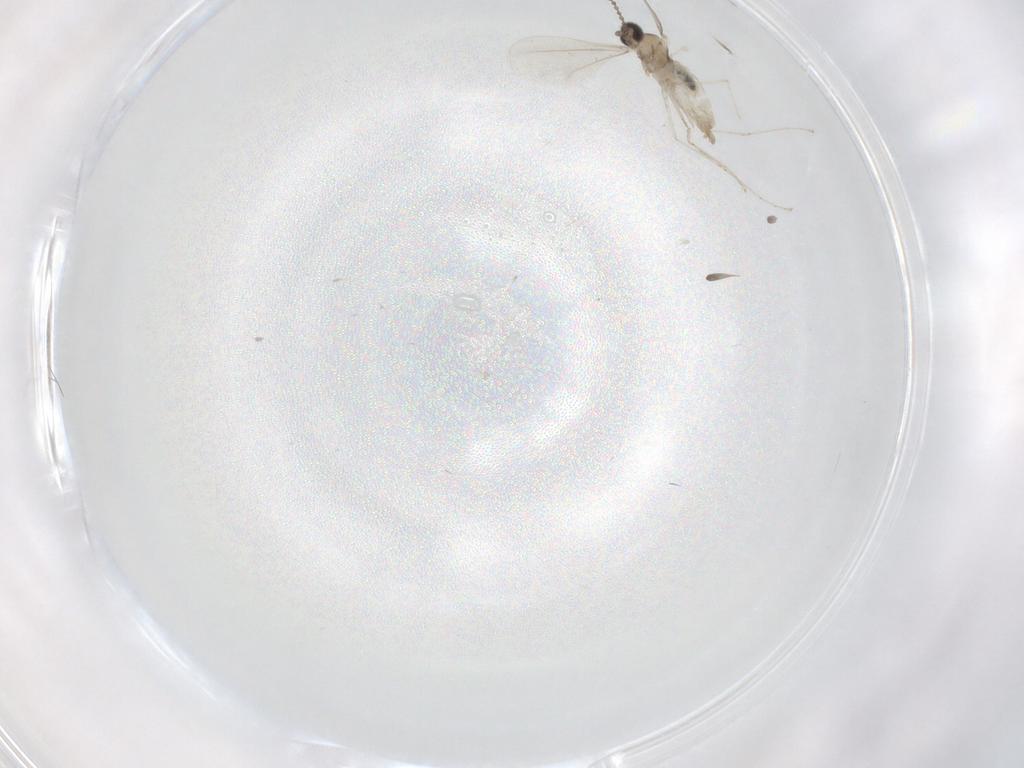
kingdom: Animalia
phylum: Arthropoda
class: Insecta
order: Diptera
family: Cecidomyiidae
